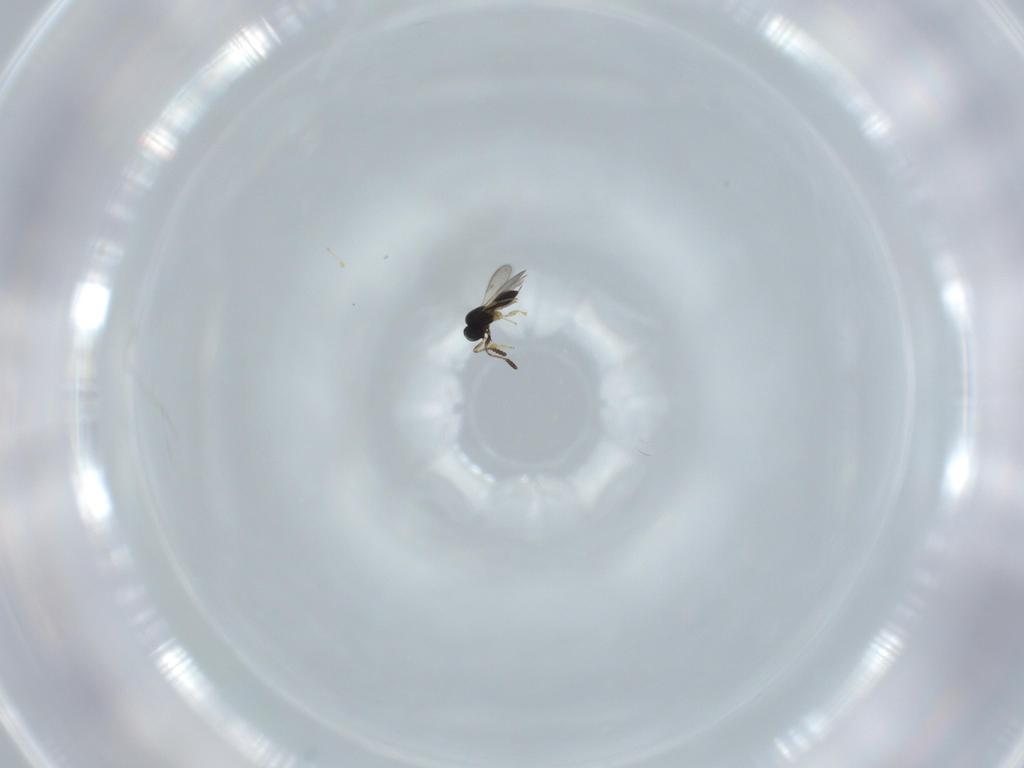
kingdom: Animalia
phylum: Arthropoda
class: Insecta
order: Hymenoptera
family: Scelionidae
